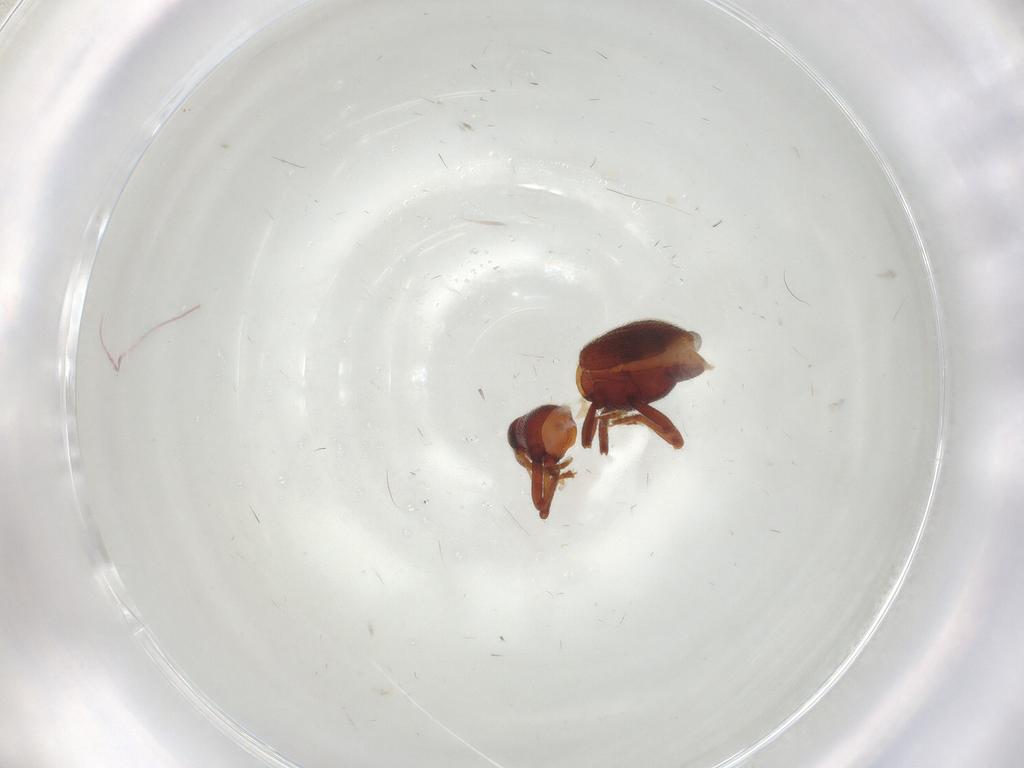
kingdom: Animalia
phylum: Arthropoda
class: Insecta
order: Coleoptera
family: Curculionidae
